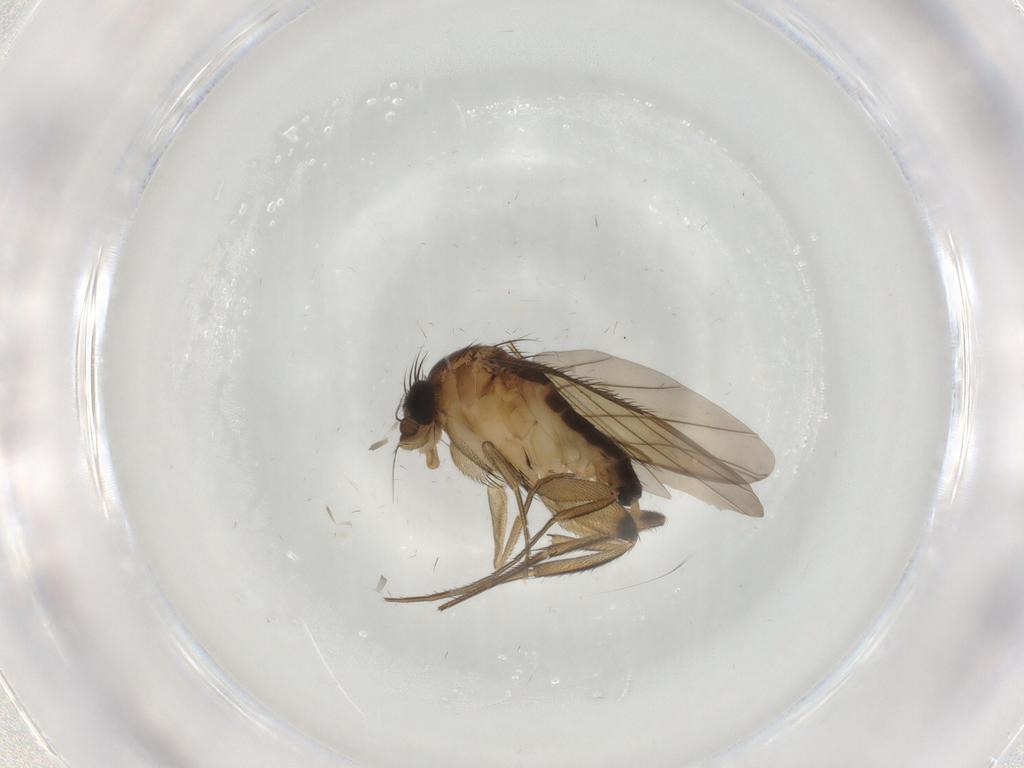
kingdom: Animalia
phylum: Arthropoda
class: Insecta
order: Diptera
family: Phoridae
